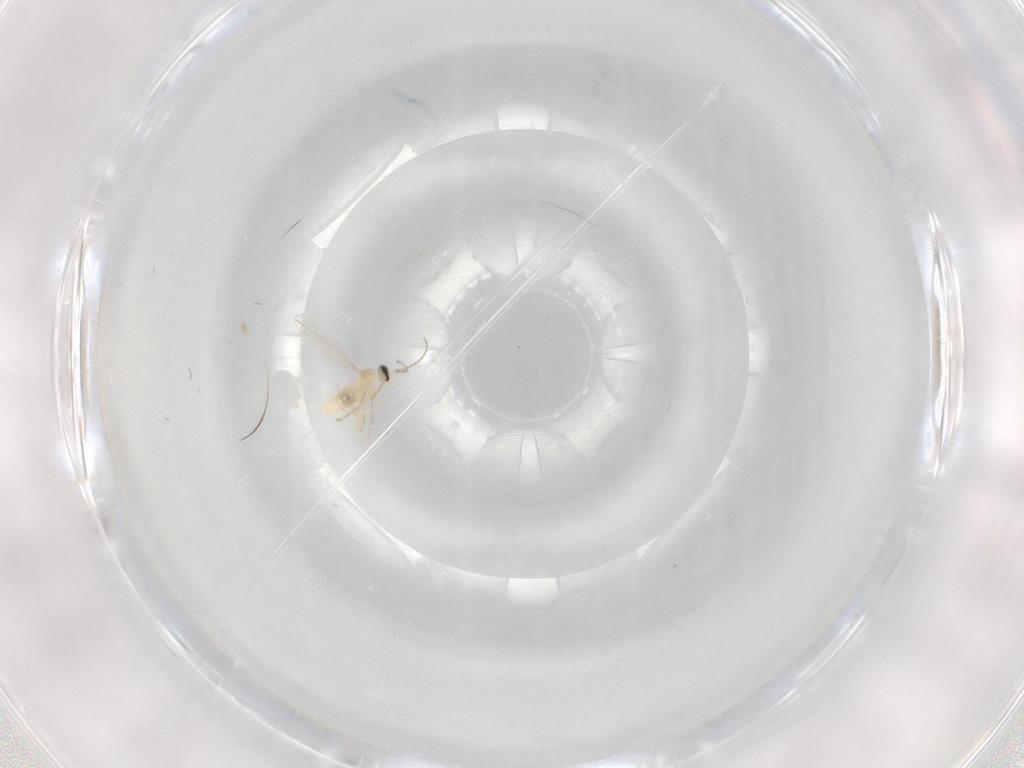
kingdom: Animalia
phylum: Arthropoda
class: Insecta
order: Diptera
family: Cecidomyiidae
